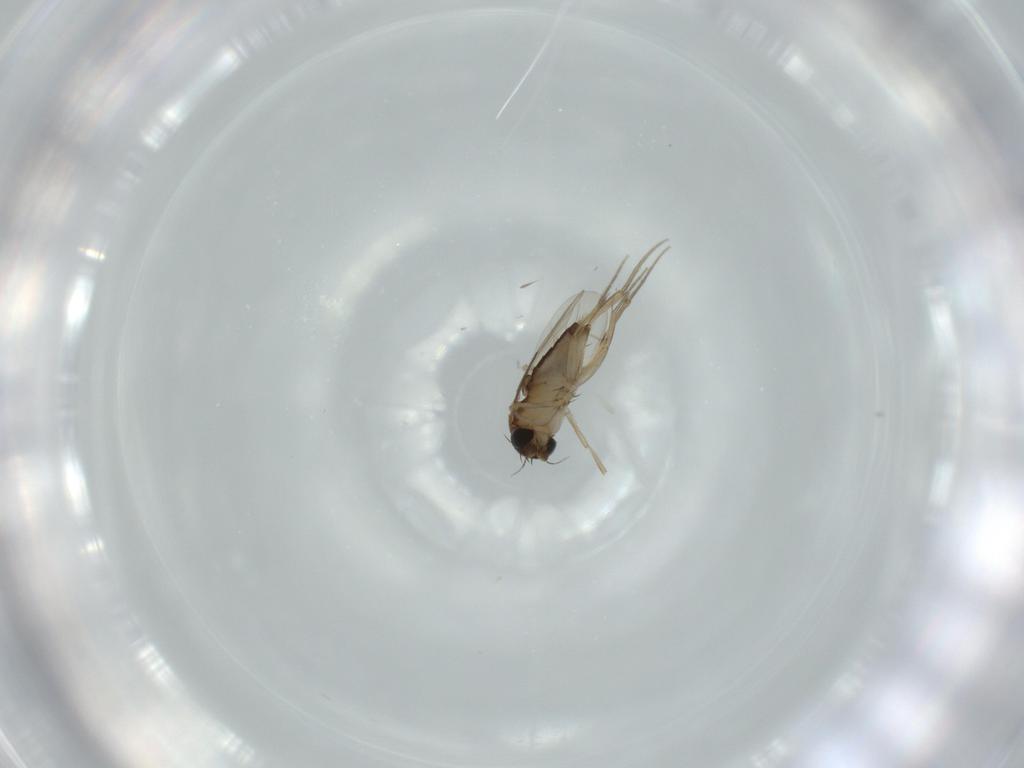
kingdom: Animalia
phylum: Arthropoda
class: Insecta
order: Diptera
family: Phoridae
